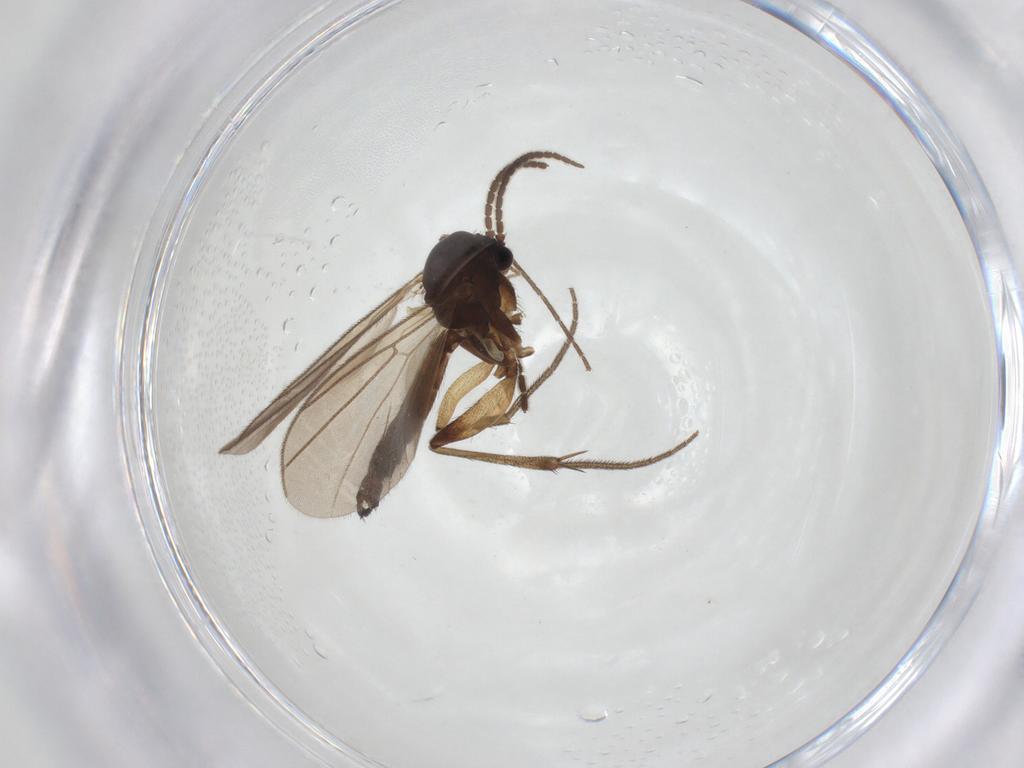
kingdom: Animalia
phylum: Arthropoda
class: Insecta
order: Diptera
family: Mycetophilidae
